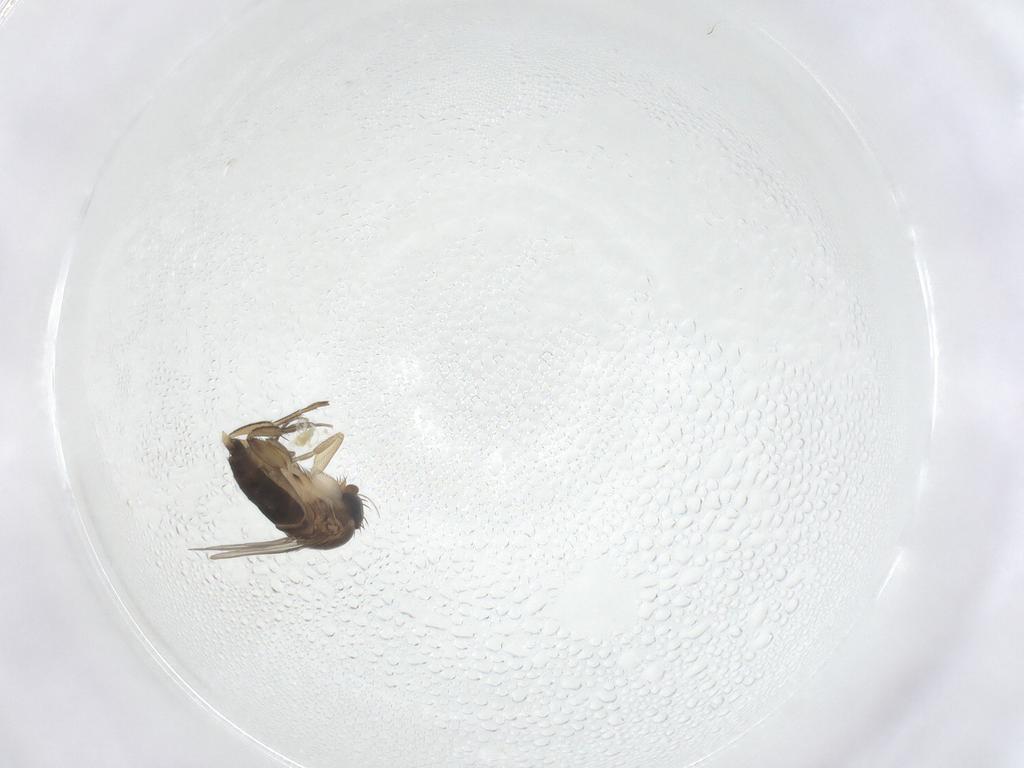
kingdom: Animalia
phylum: Arthropoda
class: Insecta
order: Diptera
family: Phoridae
